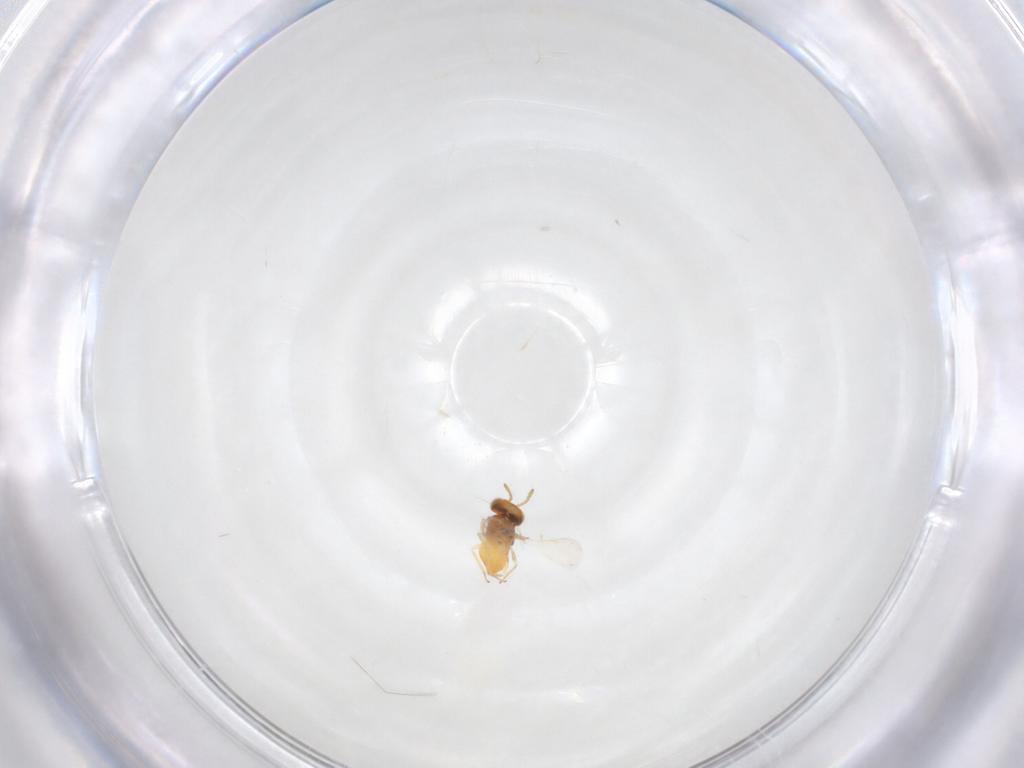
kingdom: Animalia
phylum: Arthropoda
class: Insecta
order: Hymenoptera
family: Aphelinidae
